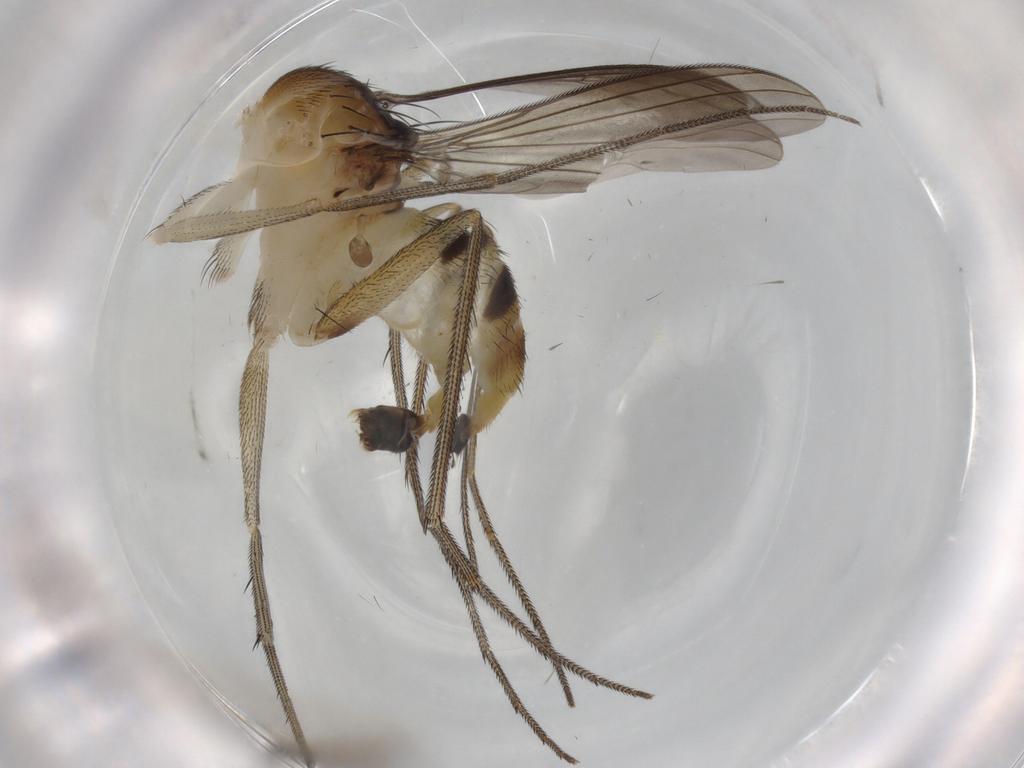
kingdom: Animalia
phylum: Arthropoda
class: Insecta
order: Diptera
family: Dolichopodidae
